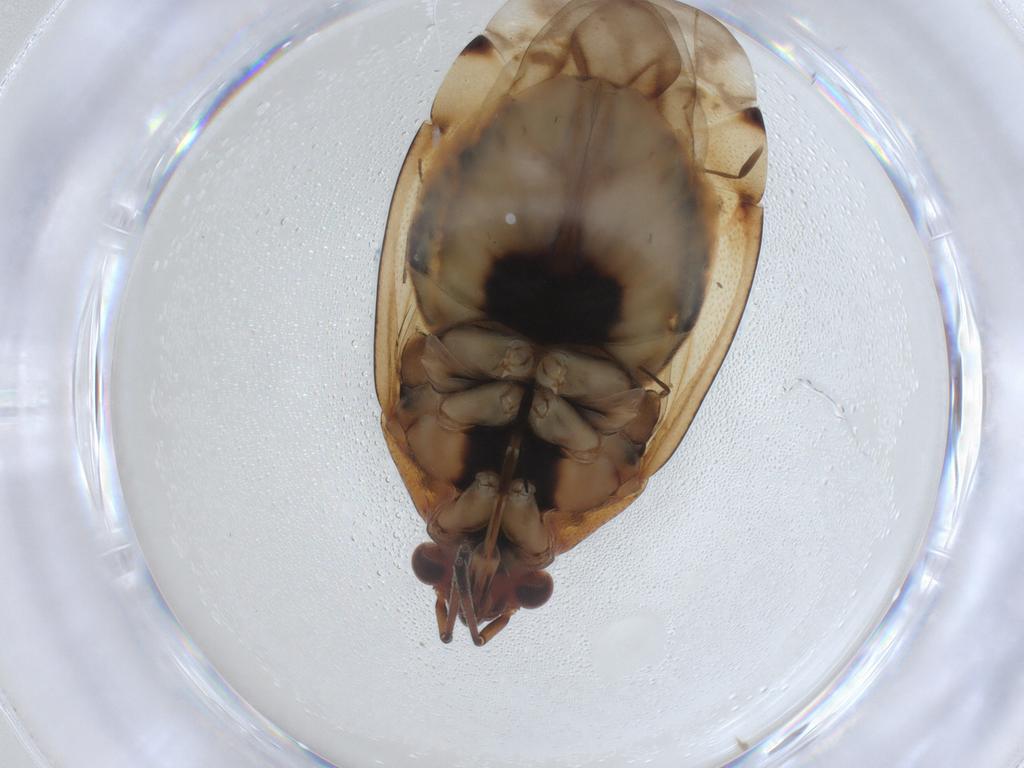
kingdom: Animalia
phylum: Arthropoda
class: Insecta
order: Hemiptera
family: Miridae
